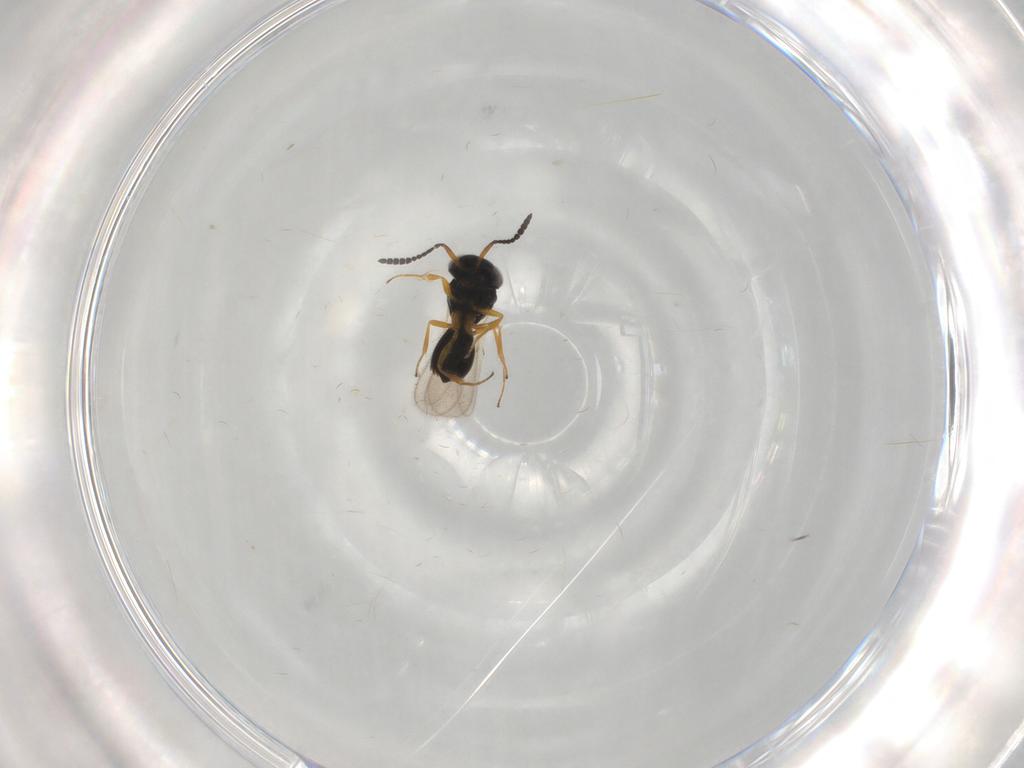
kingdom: Animalia
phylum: Arthropoda
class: Insecta
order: Hymenoptera
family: Scelionidae
